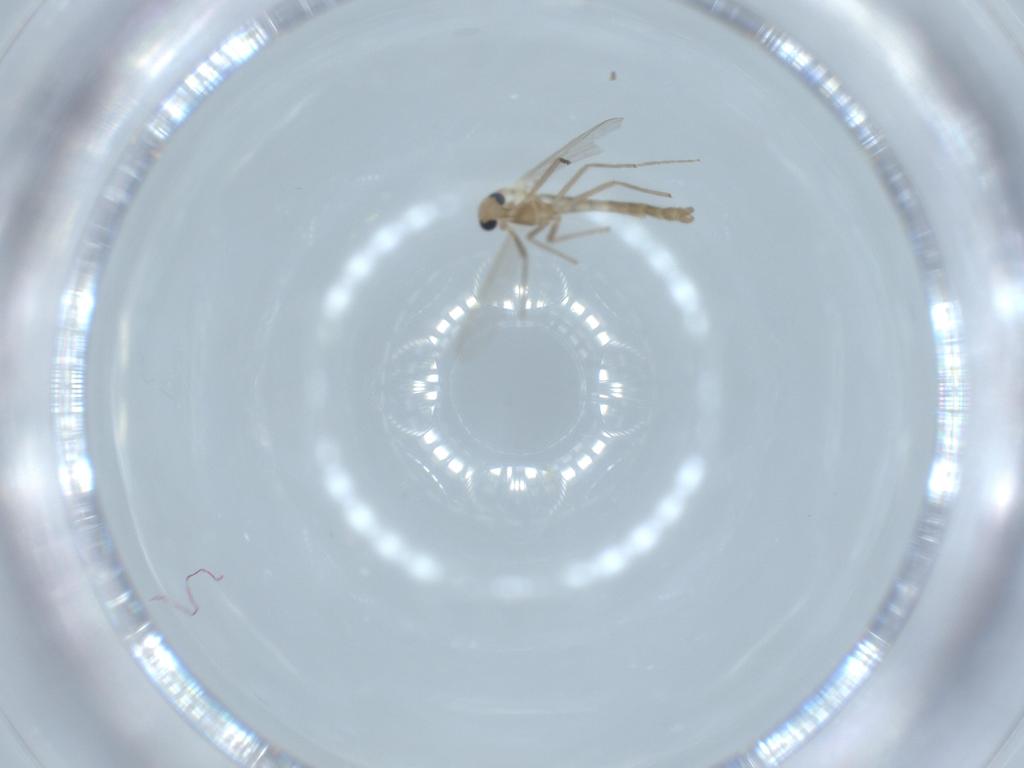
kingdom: Animalia
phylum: Arthropoda
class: Insecta
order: Diptera
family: Chironomidae
